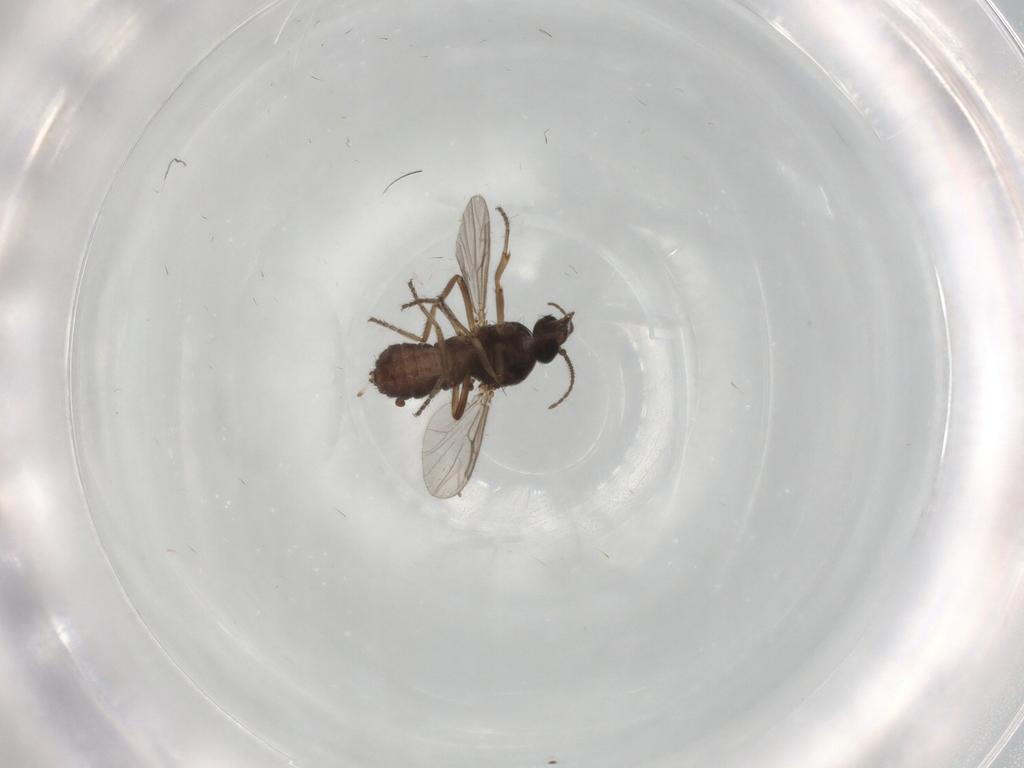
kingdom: Animalia
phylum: Arthropoda
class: Insecta
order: Diptera
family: Ceratopogonidae
